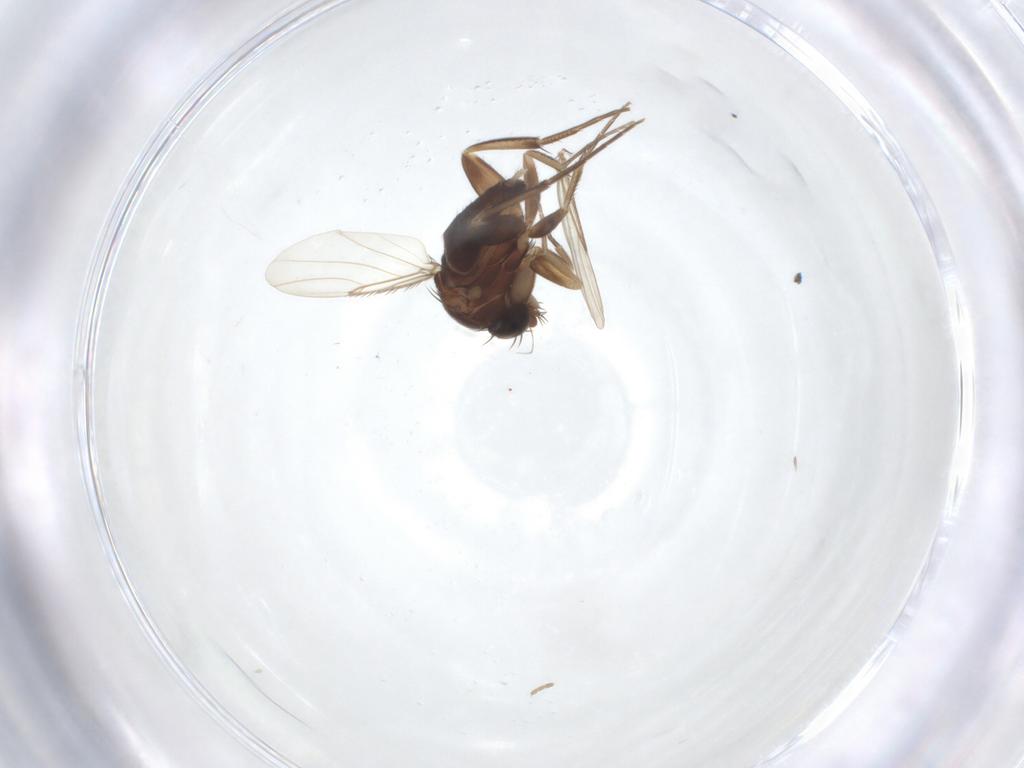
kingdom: Animalia
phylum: Arthropoda
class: Insecta
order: Diptera
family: Phoridae
